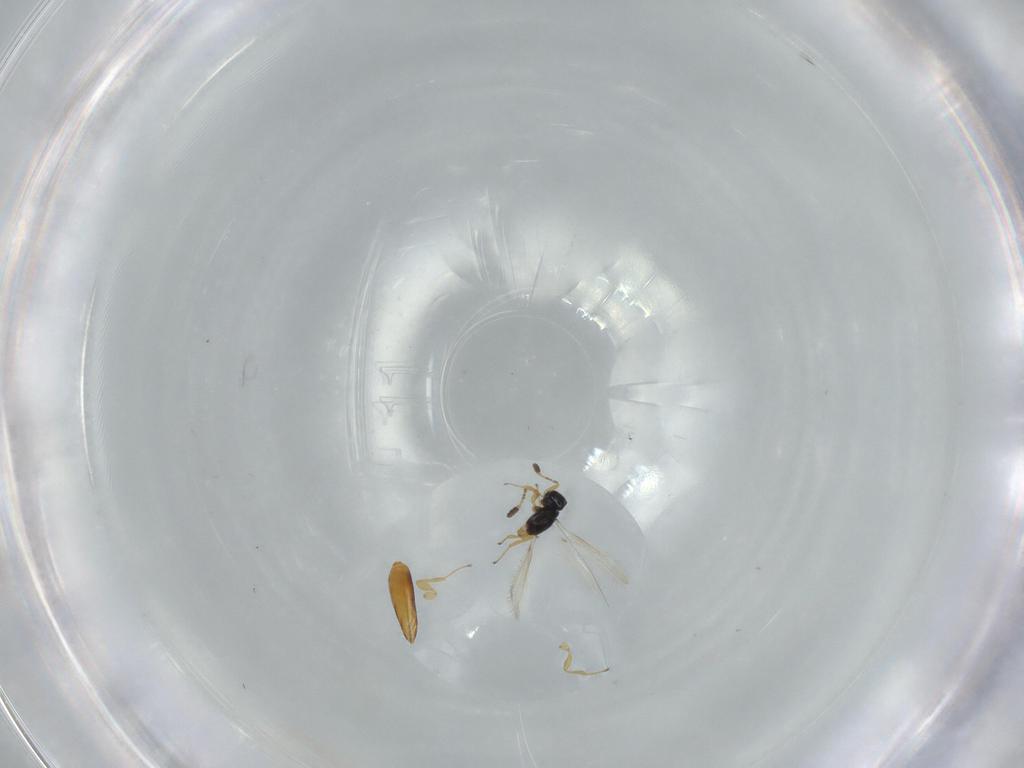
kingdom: Animalia
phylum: Arthropoda
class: Insecta
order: Hymenoptera
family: Scelionidae
